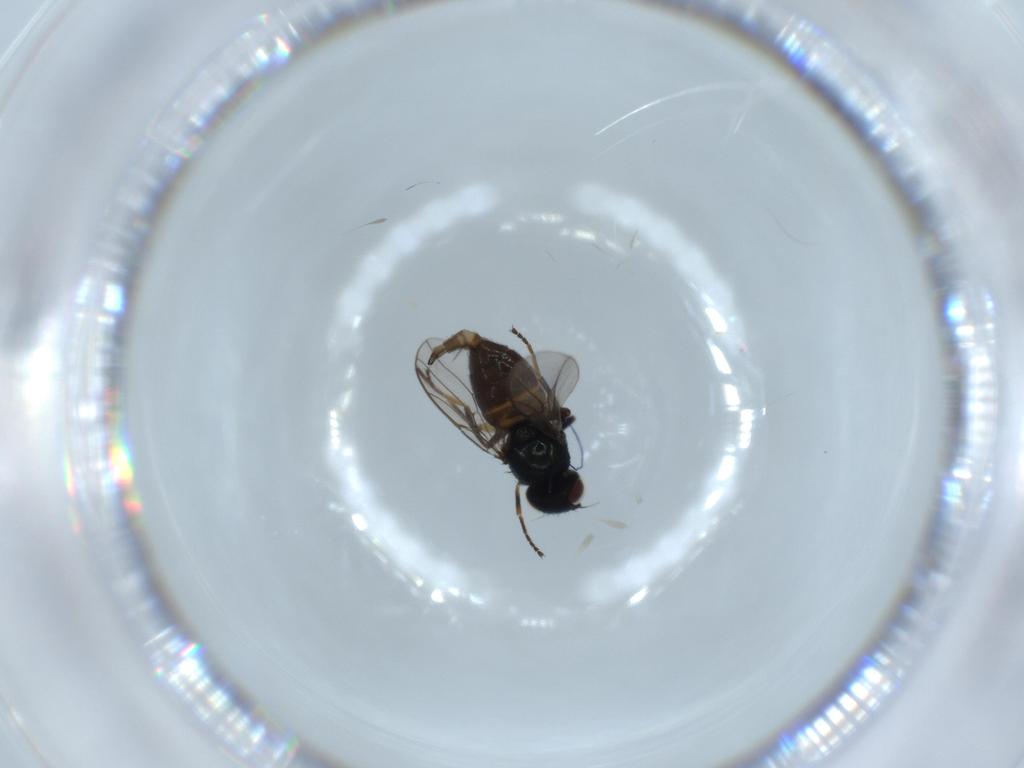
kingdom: Animalia
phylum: Arthropoda
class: Insecta
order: Diptera
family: Chloropidae
